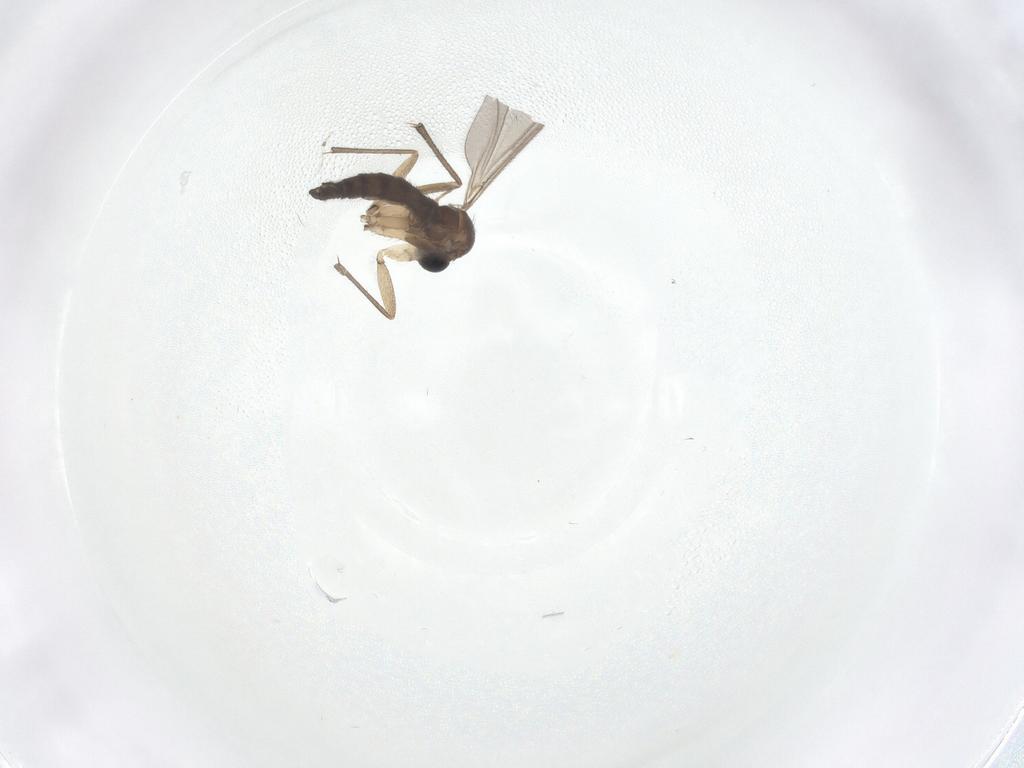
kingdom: Animalia
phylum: Arthropoda
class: Insecta
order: Diptera
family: Sciaridae
